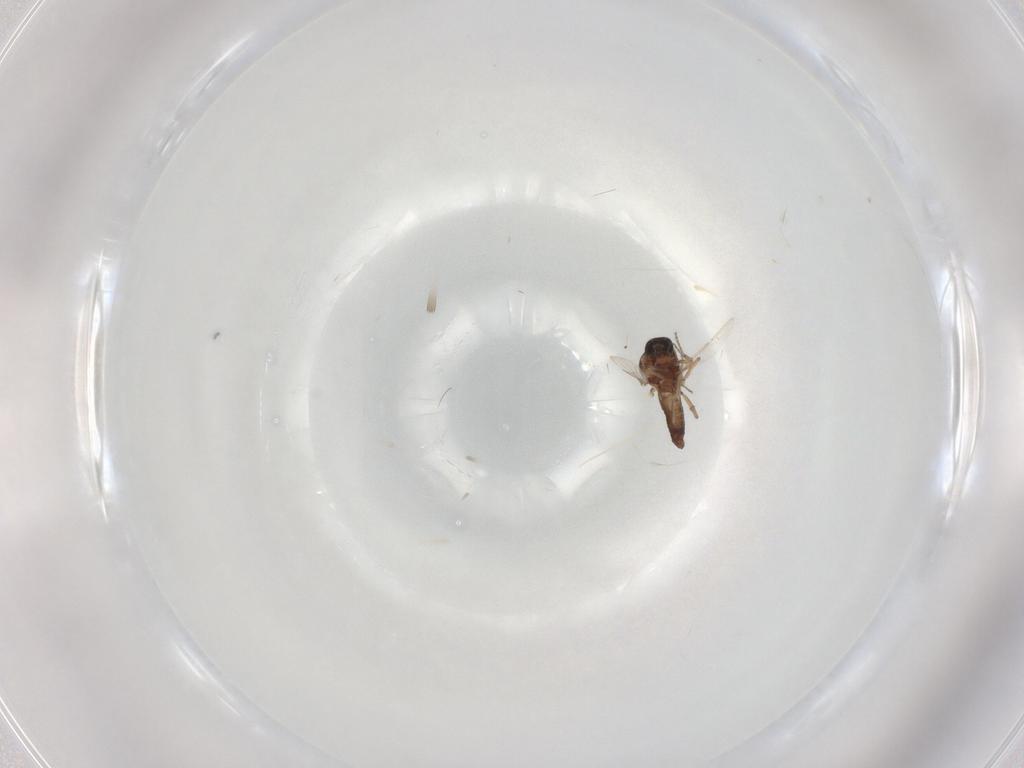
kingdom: Animalia
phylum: Arthropoda
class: Insecta
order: Diptera
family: Ceratopogonidae
